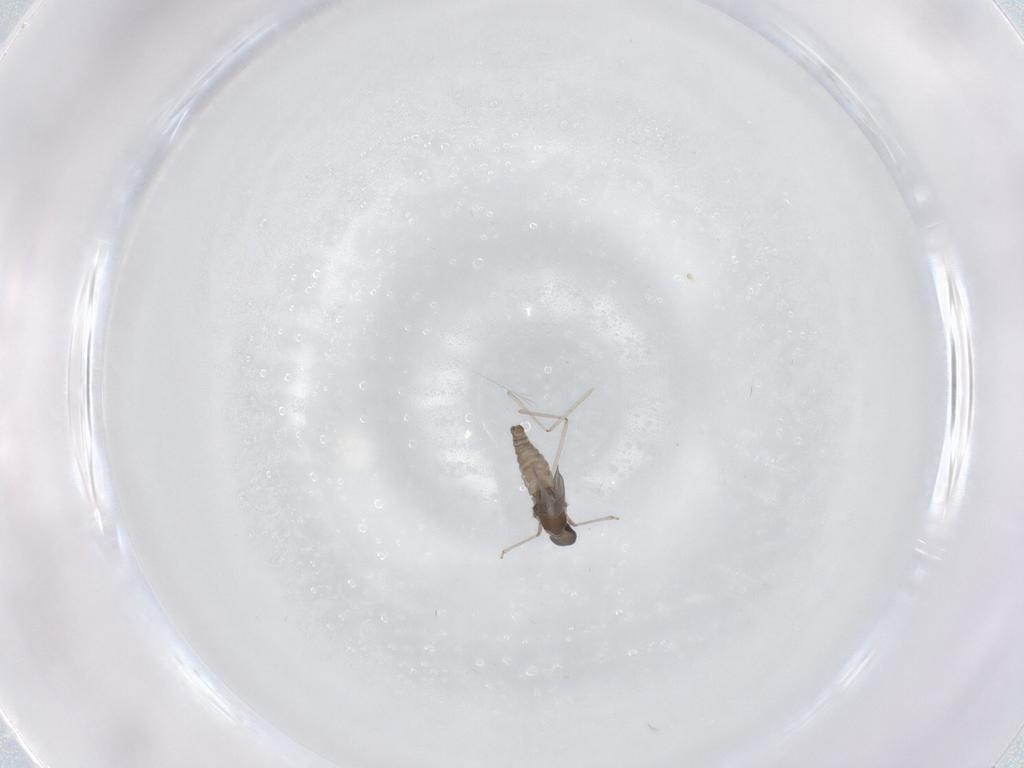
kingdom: Animalia
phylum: Arthropoda
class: Insecta
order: Diptera
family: Cecidomyiidae
